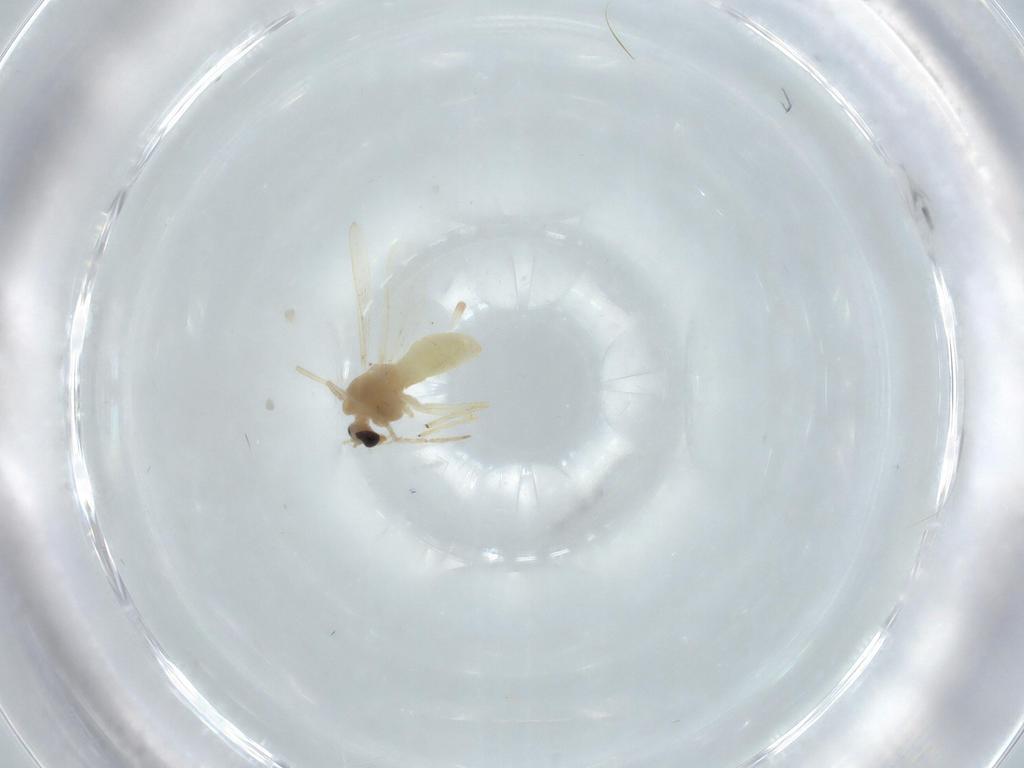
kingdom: Animalia
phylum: Arthropoda
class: Insecta
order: Diptera
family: Chironomidae
